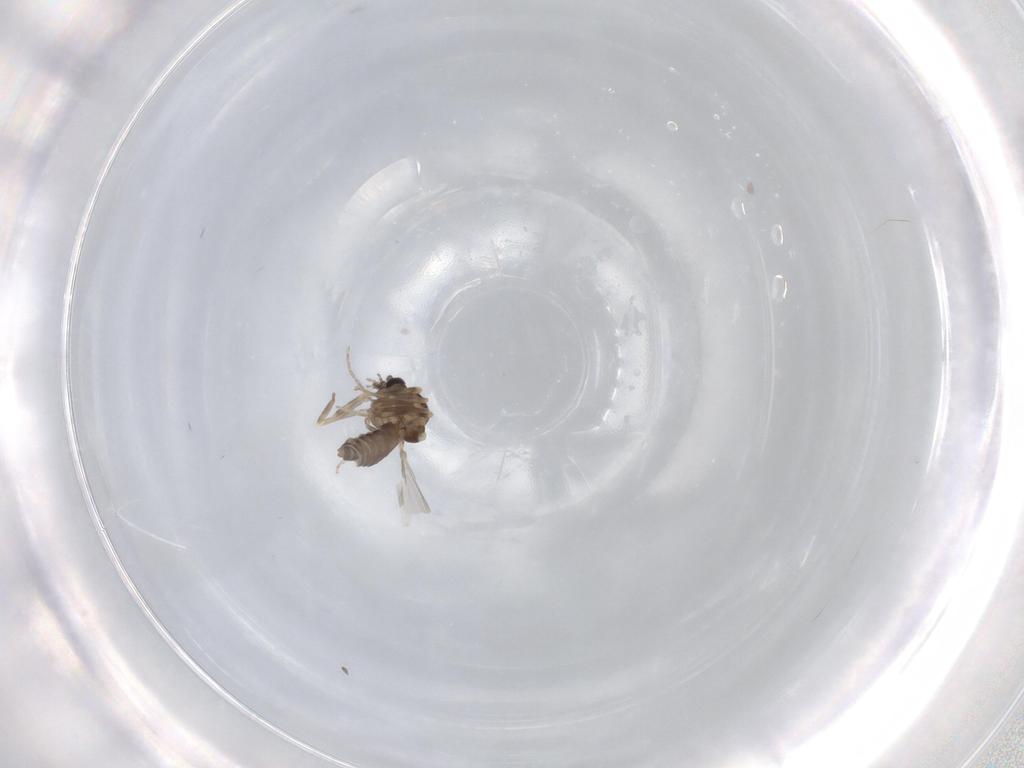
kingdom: Animalia
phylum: Arthropoda
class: Insecta
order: Diptera
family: Ceratopogonidae
